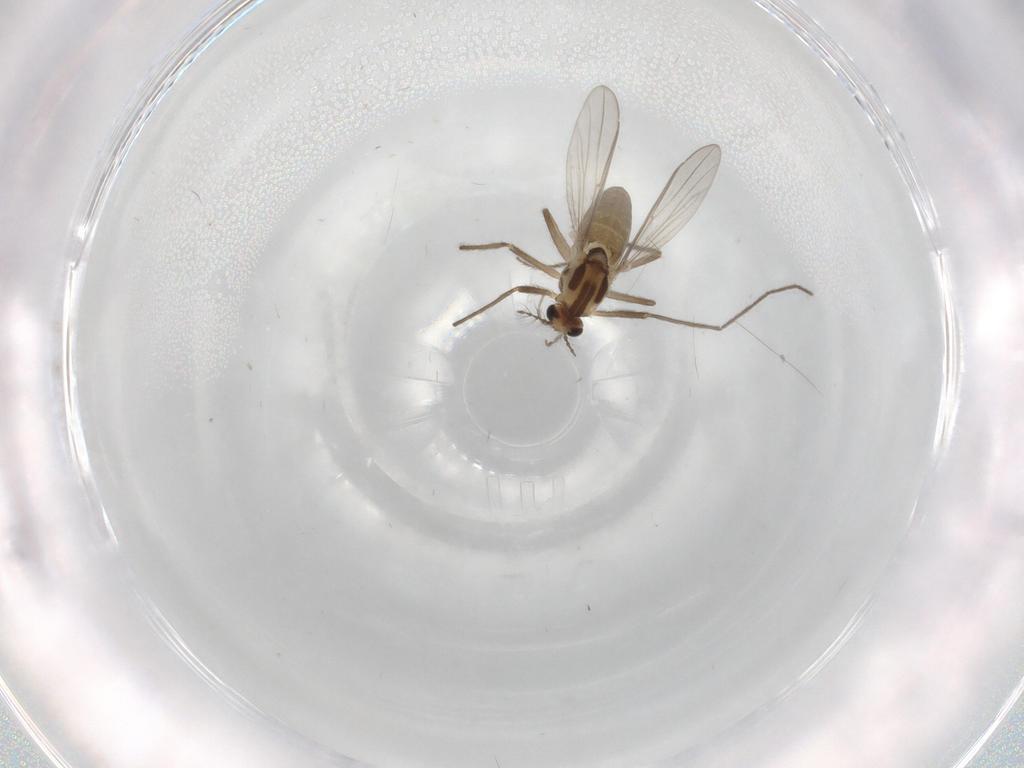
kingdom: Animalia
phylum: Arthropoda
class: Insecta
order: Diptera
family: Chironomidae
